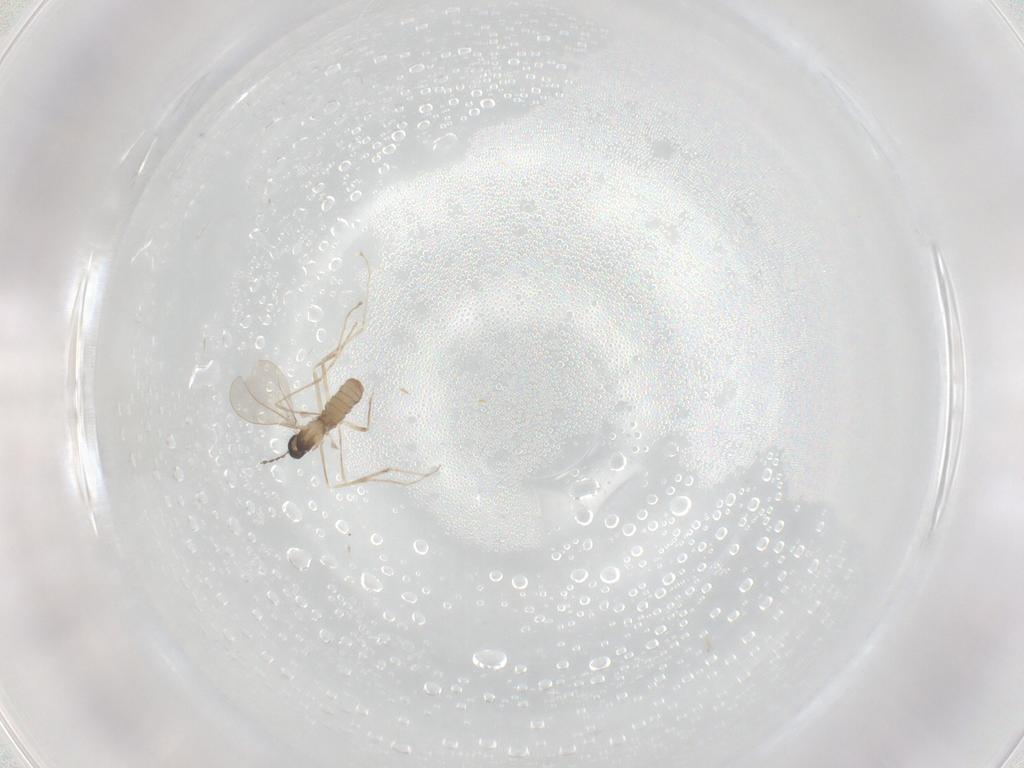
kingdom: Animalia
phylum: Arthropoda
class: Insecta
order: Diptera
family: Cecidomyiidae
